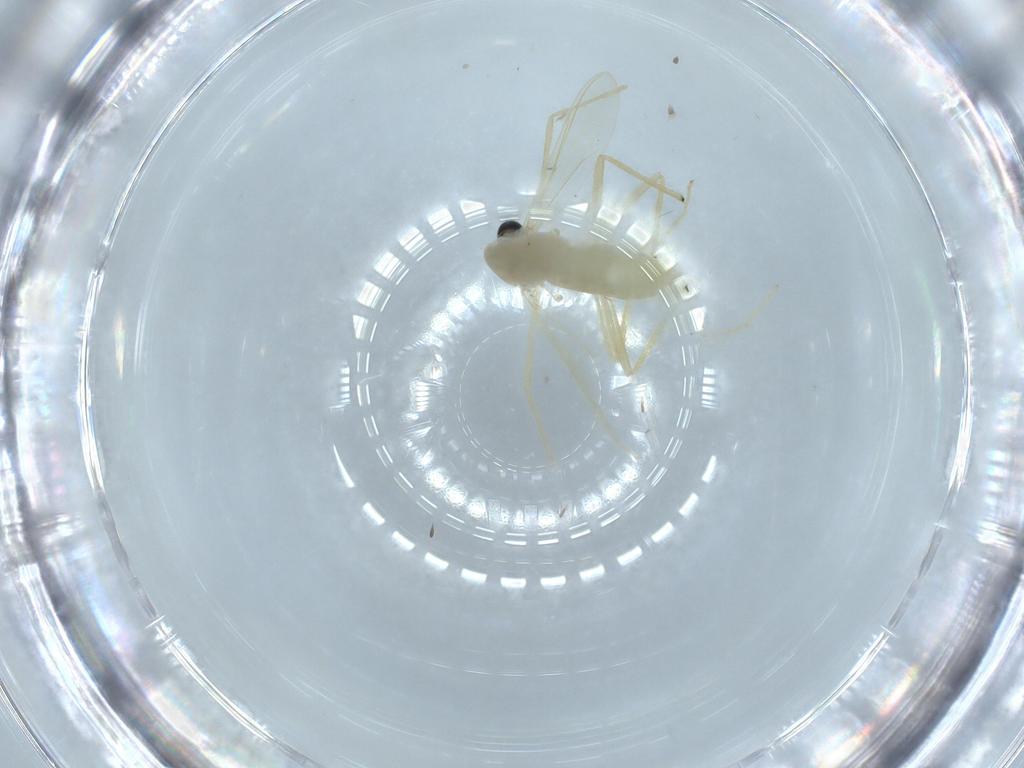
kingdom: Animalia
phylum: Arthropoda
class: Insecta
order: Diptera
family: Chironomidae
